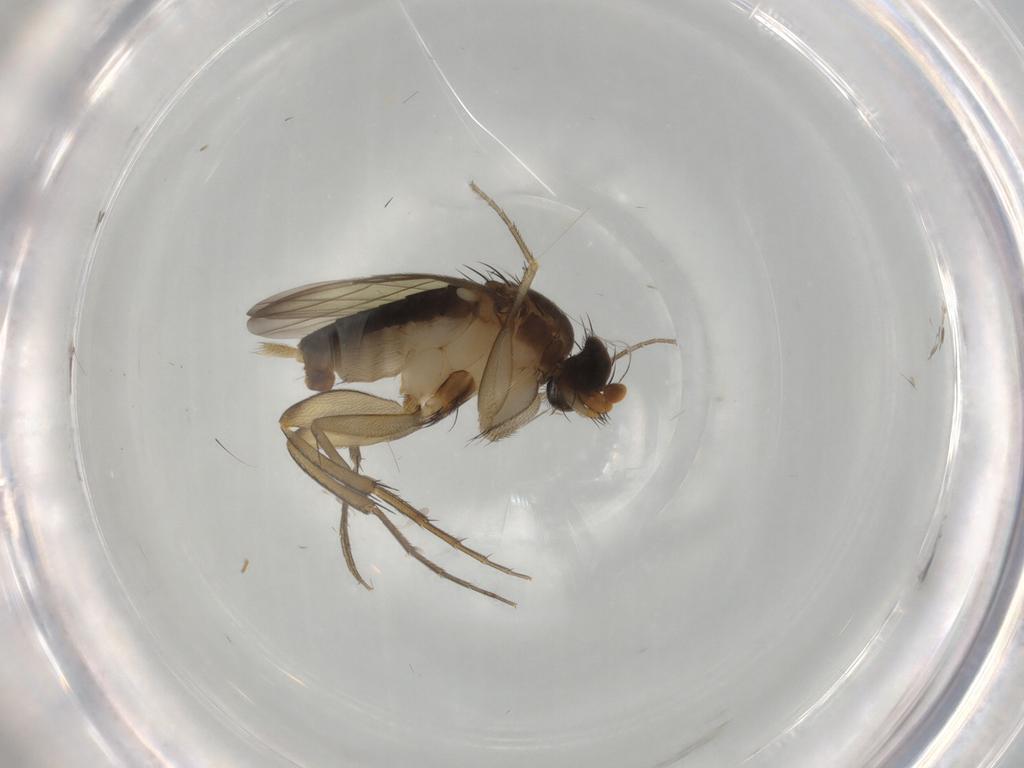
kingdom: Animalia
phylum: Arthropoda
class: Insecta
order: Diptera
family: Phoridae
